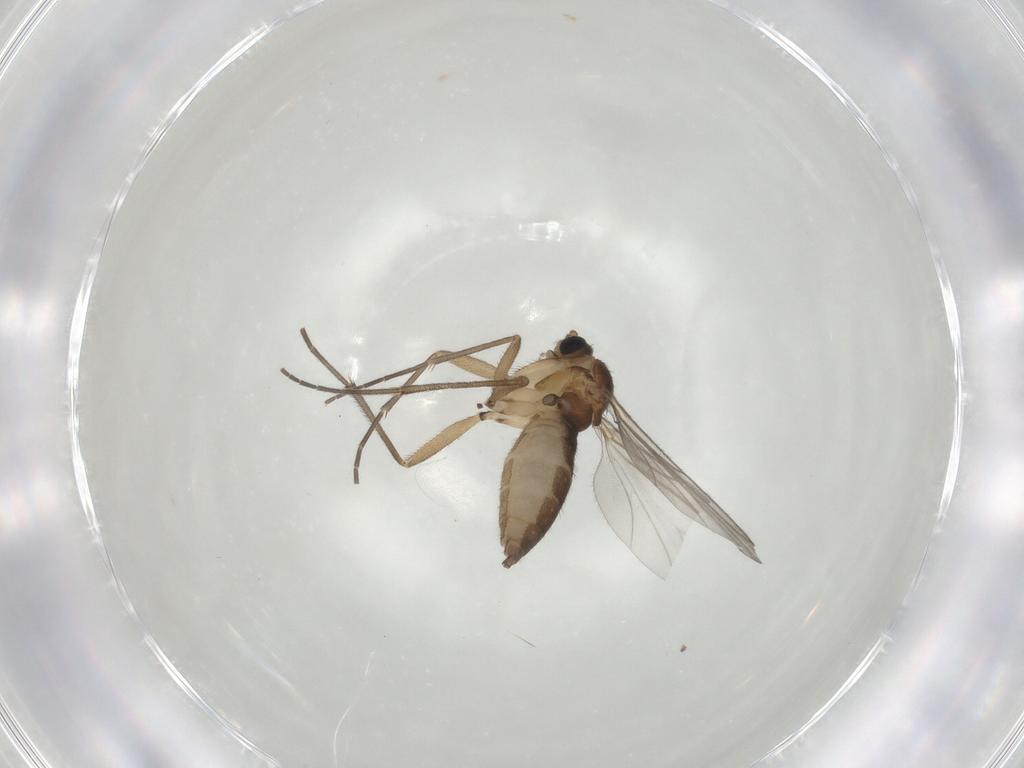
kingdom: Animalia
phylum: Arthropoda
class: Insecta
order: Diptera
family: Sciaridae
